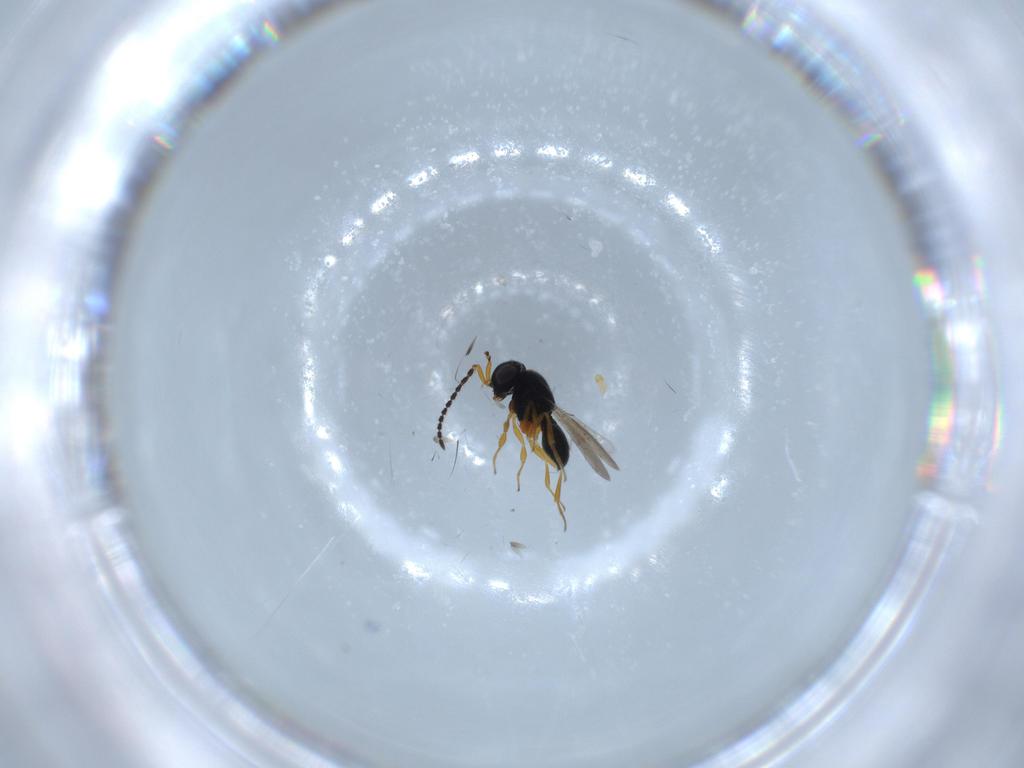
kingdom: Animalia
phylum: Arthropoda
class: Insecta
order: Hymenoptera
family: Scelionidae
